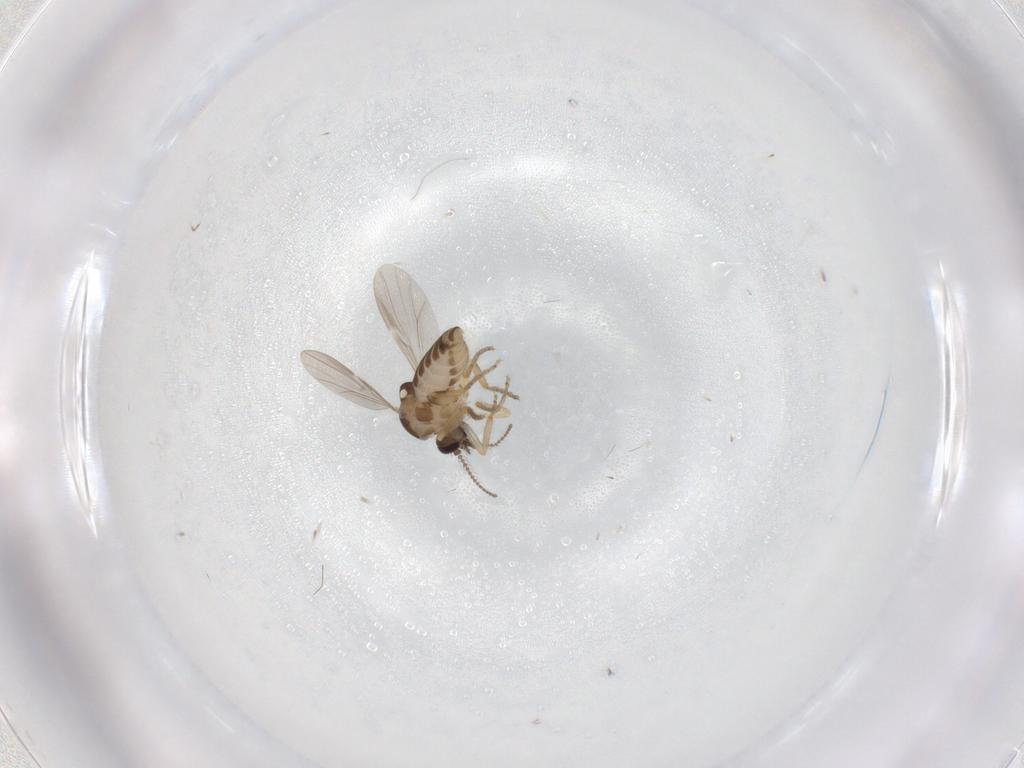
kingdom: Animalia
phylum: Arthropoda
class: Insecta
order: Diptera
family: Ceratopogonidae
